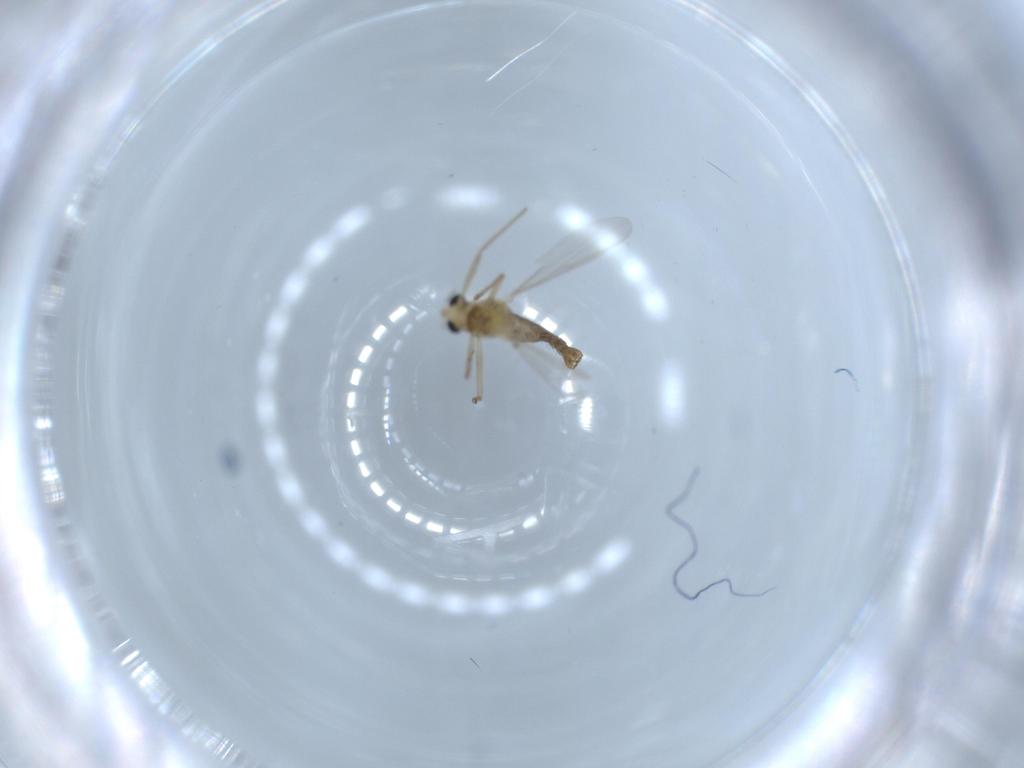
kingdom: Animalia
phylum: Arthropoda
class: Insecta
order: Diptera
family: Chironomidae
